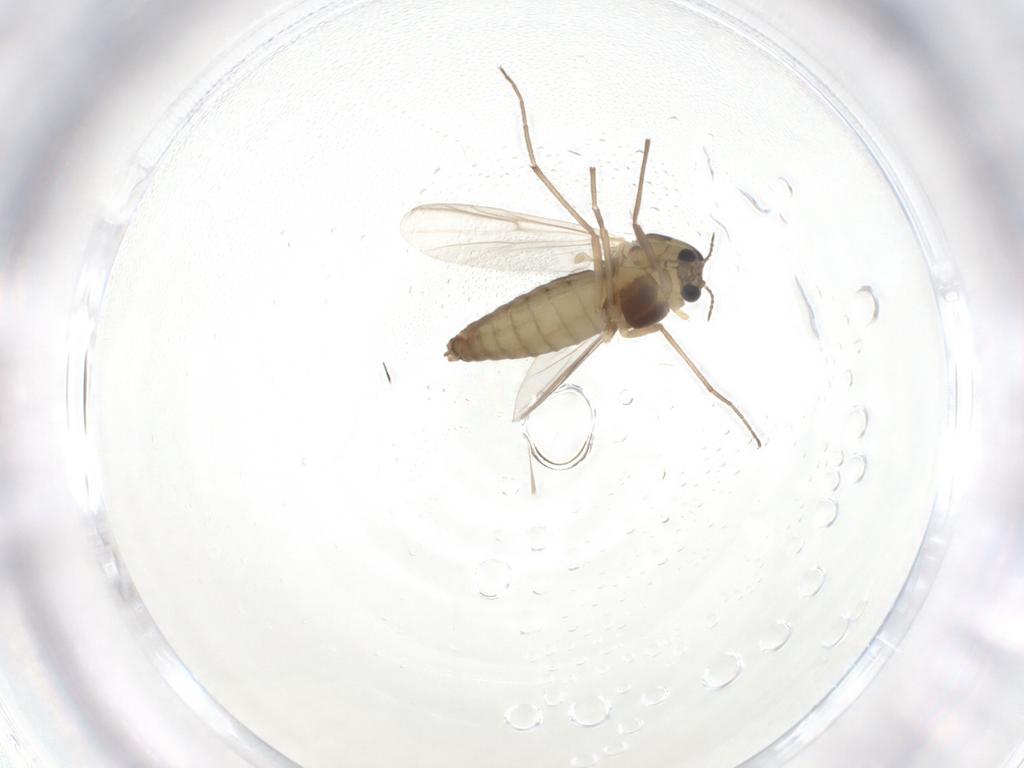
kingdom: Animalia
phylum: Arthropoda
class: Insecta
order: Diptera
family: Chironomidae
